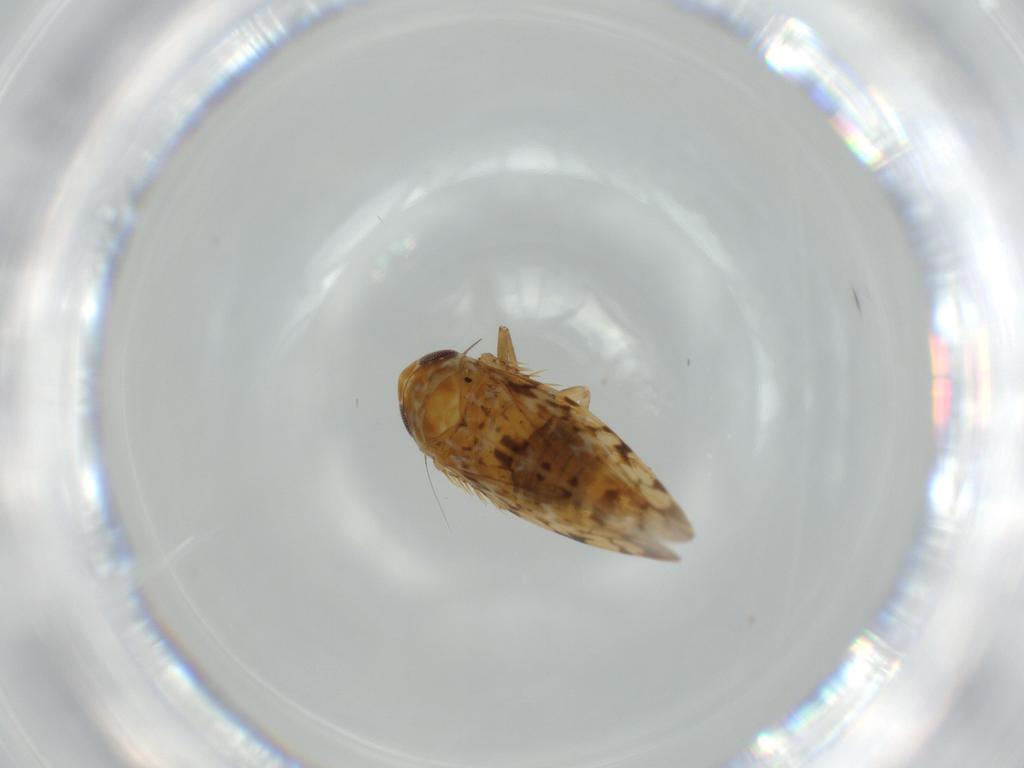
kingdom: Animalia
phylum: Arthropoda
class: Insecta
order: Hemiptera
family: Cicadellidae
